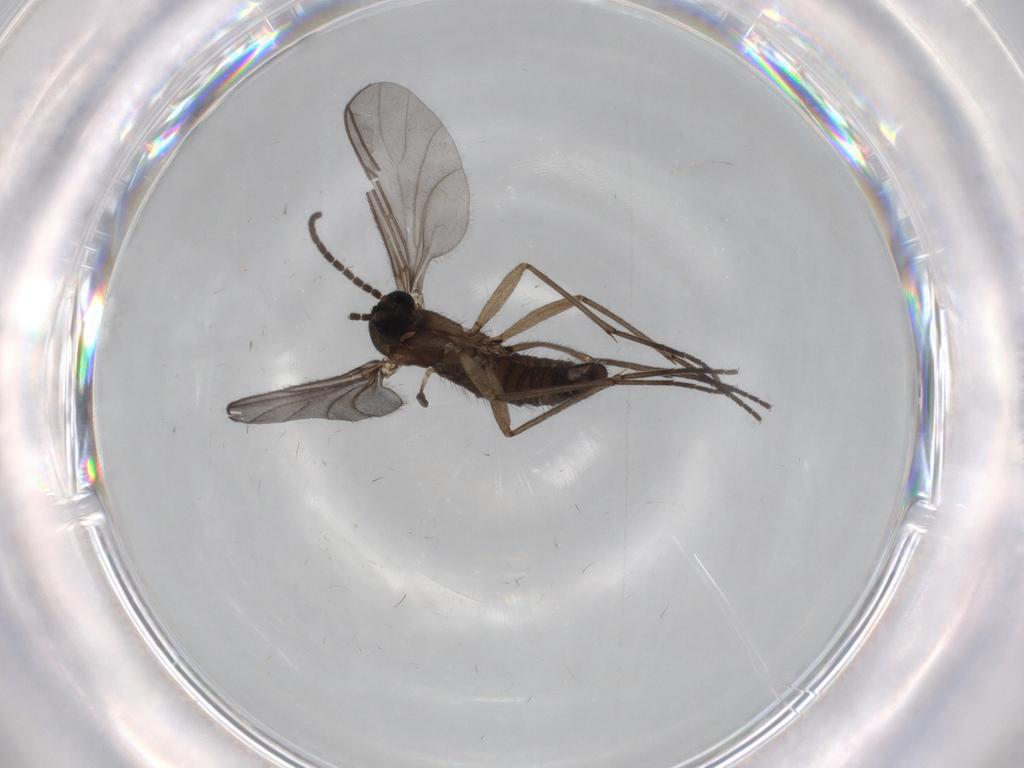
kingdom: Animalia
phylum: Arthropoda
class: Insecta
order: Diptera
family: Sciaridae
